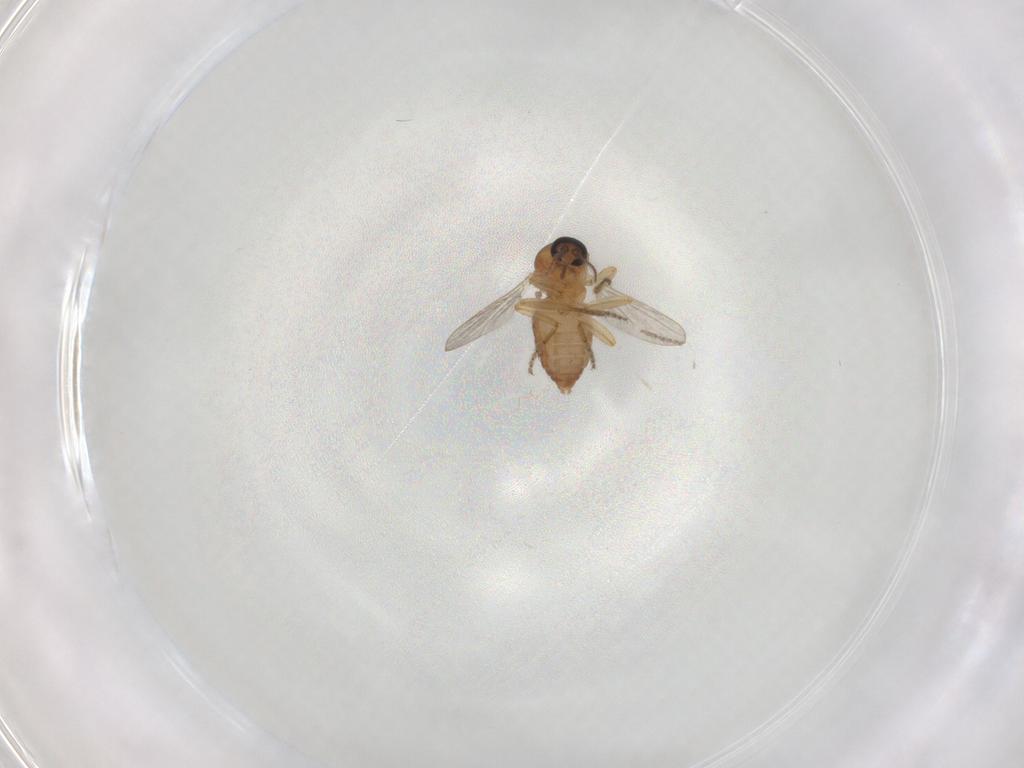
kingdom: Animalia
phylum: Arthropoda
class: Insecta
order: Diptera
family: Ceratopogonidae
